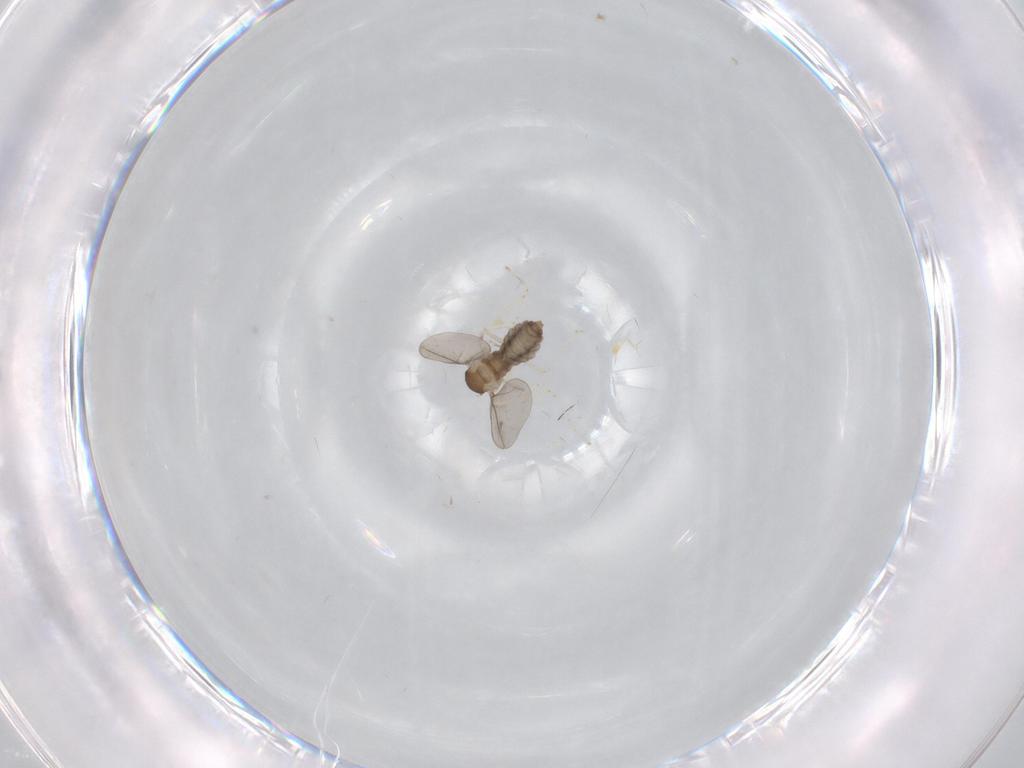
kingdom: Animalia
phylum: Arthropoda
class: Insecta
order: Diptera
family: Cecidomyiidae
